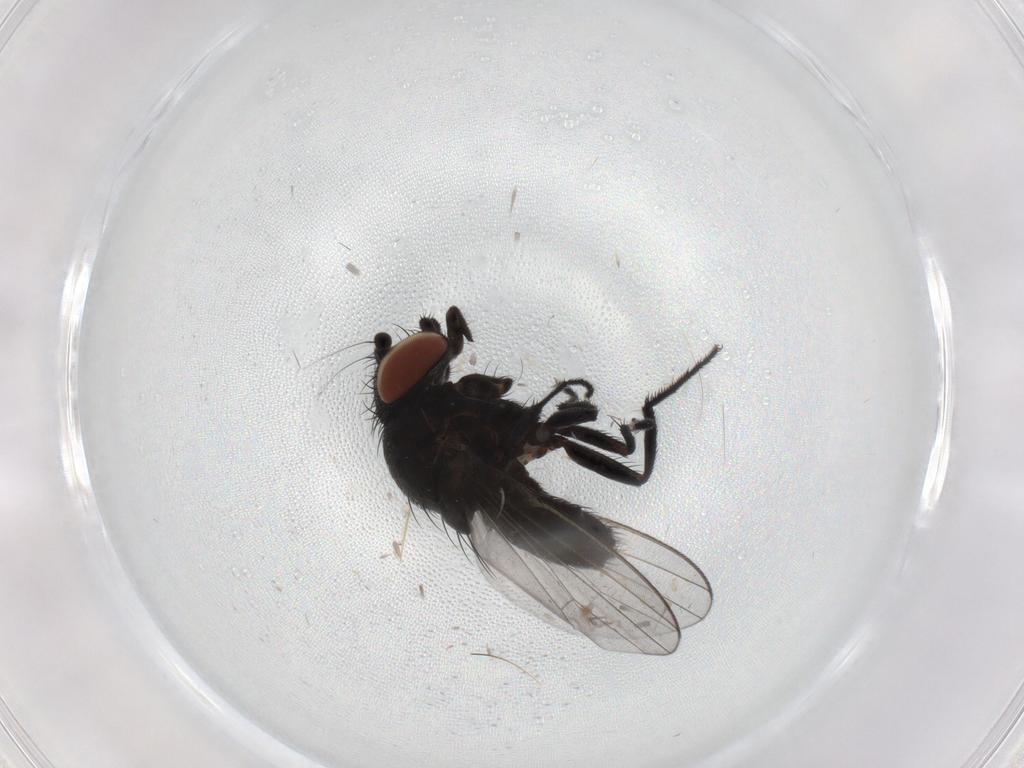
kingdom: Animalia
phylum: Arthropoda
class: Insecta
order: Diptera
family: Milichiidae
